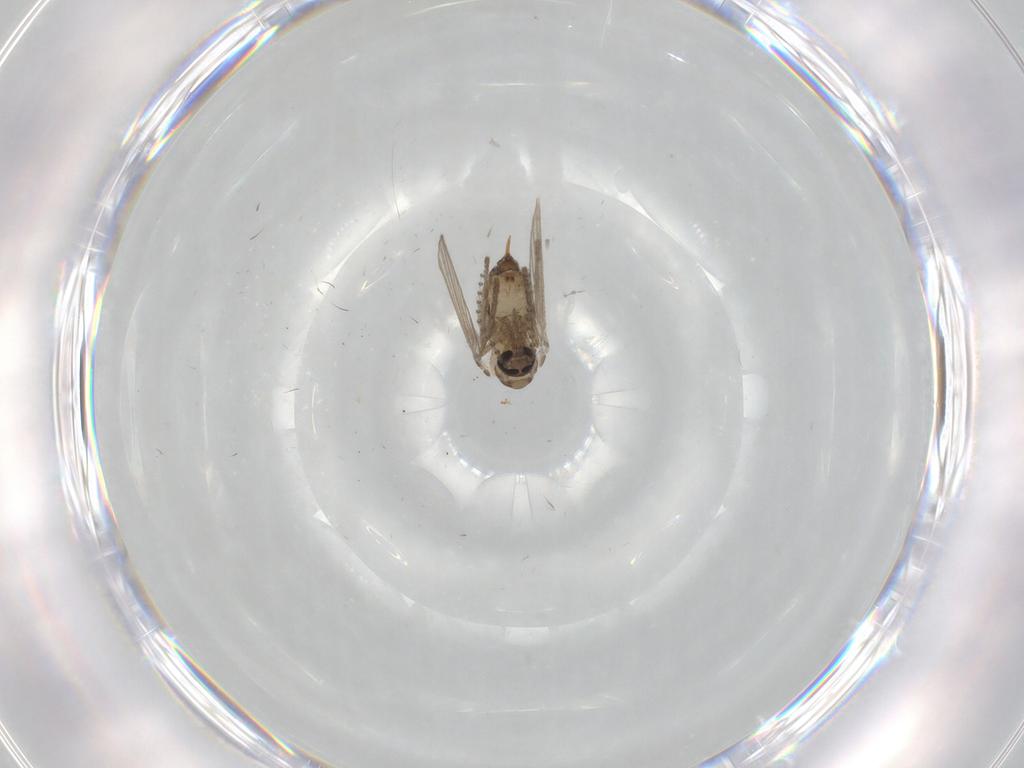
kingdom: Animalia
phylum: Arthropoda
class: Insecta
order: Diptera
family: Psychodidae
